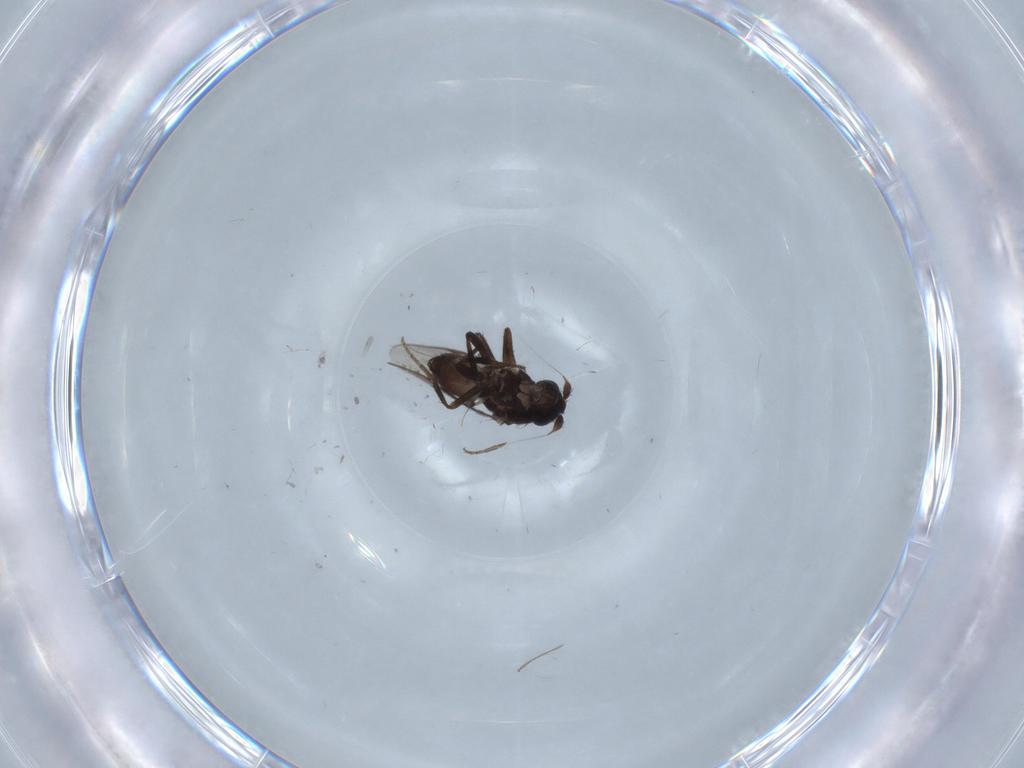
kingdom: Animalia
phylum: Arthropoda
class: Insecta
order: Diptera
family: Sphaeroceridae
